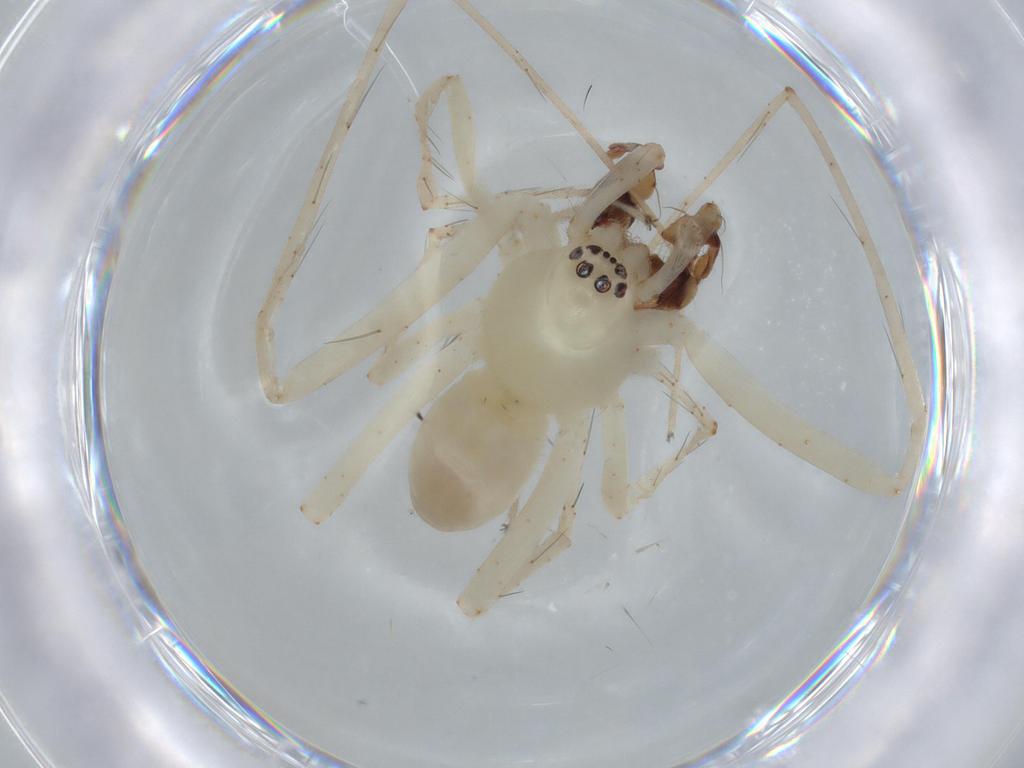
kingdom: Animalia
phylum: Arthropoda
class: Arachnida
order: Araneae
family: Anyphaenidae
